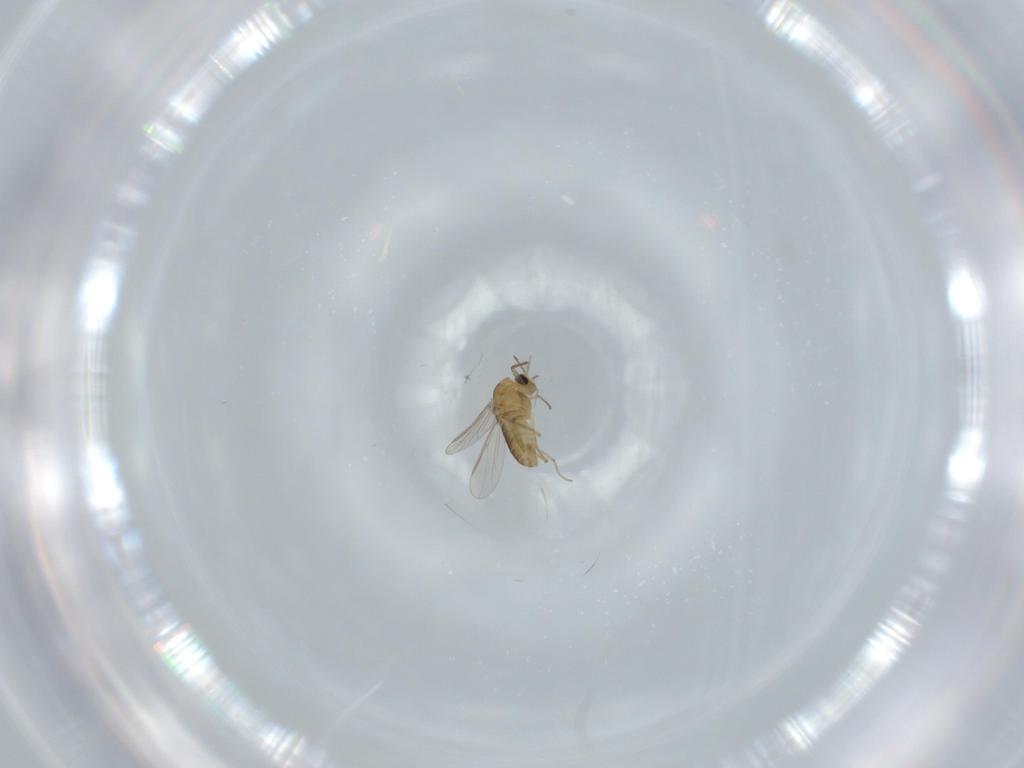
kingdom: Animalia
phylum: Arthropoda
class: Insecta
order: Diptera
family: Chironomidae
